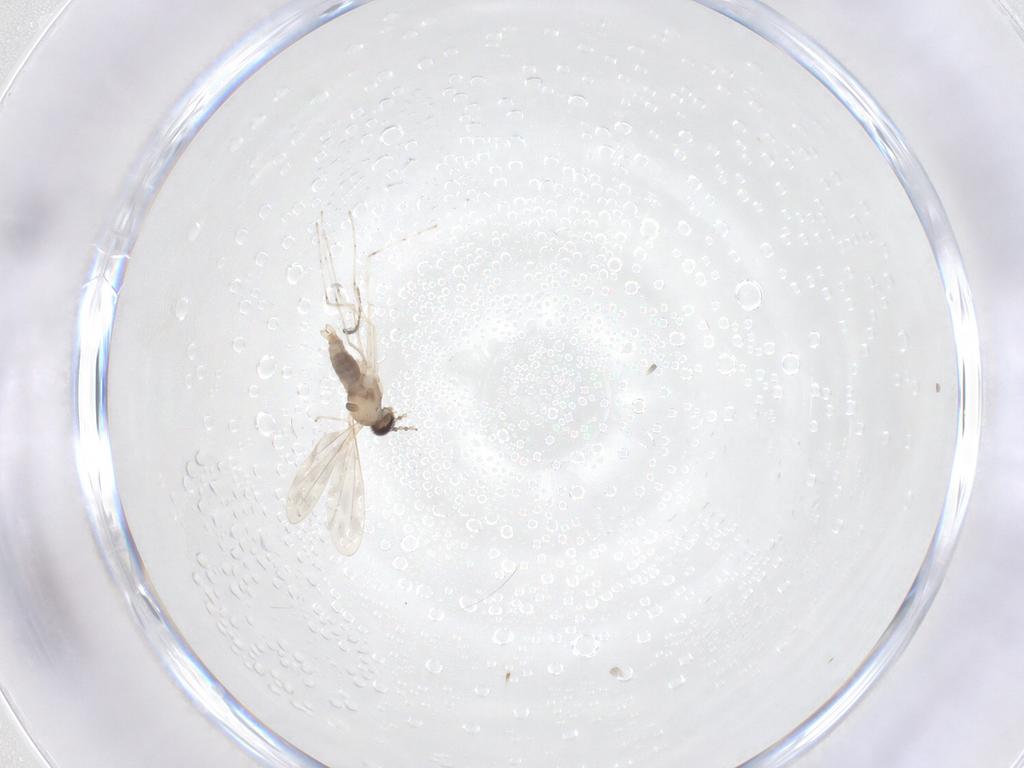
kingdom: Animalia
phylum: Arthropoda
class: Insecta
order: Diptera
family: Cecidomyiidae
